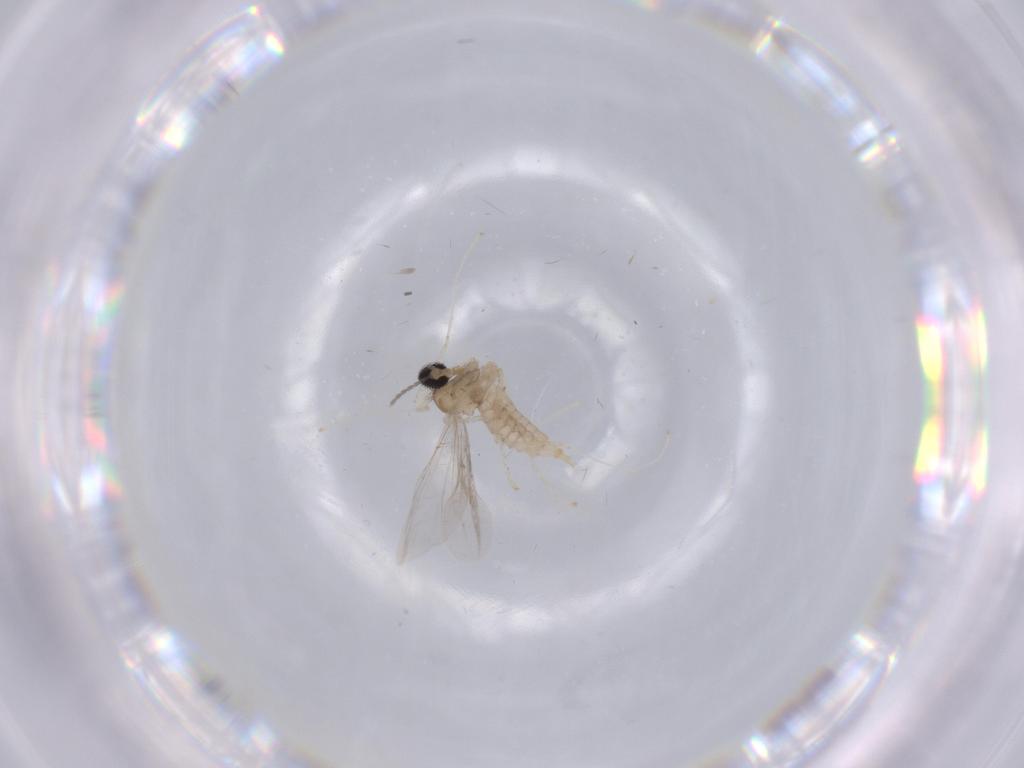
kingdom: Animalia
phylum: Arthropoda
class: Insecta
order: Diptera
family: Cecidomyiidae
